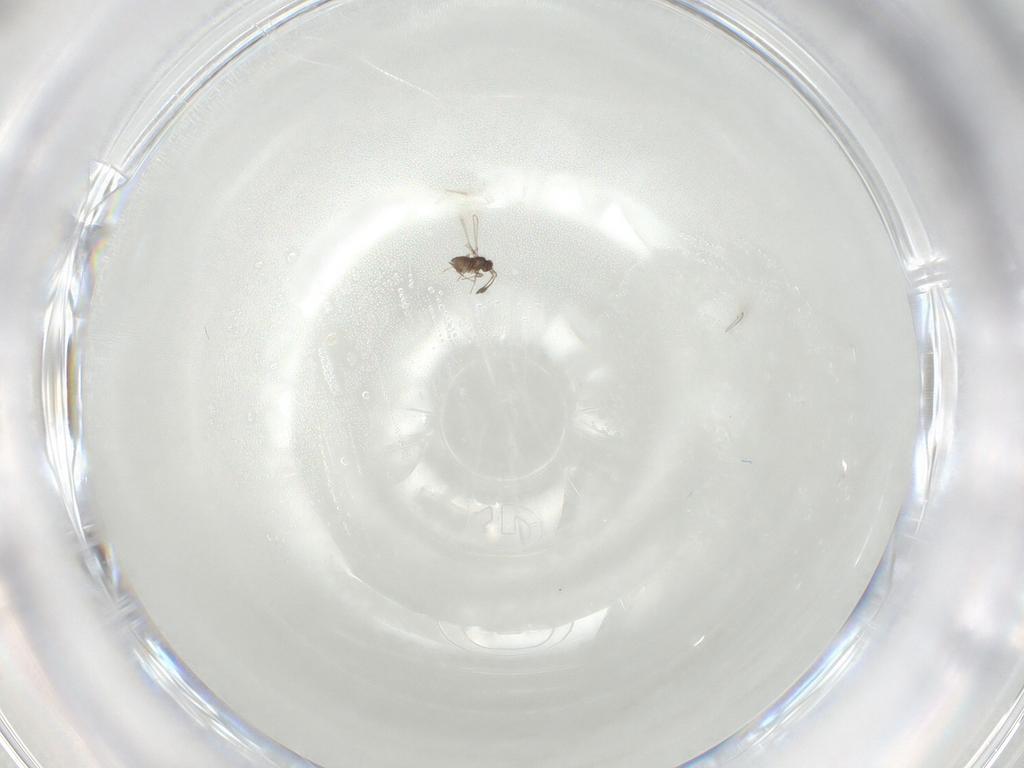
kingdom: Animalia
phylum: Arthropoda
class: Insecta
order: Hymenoptera
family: Diapriidae
